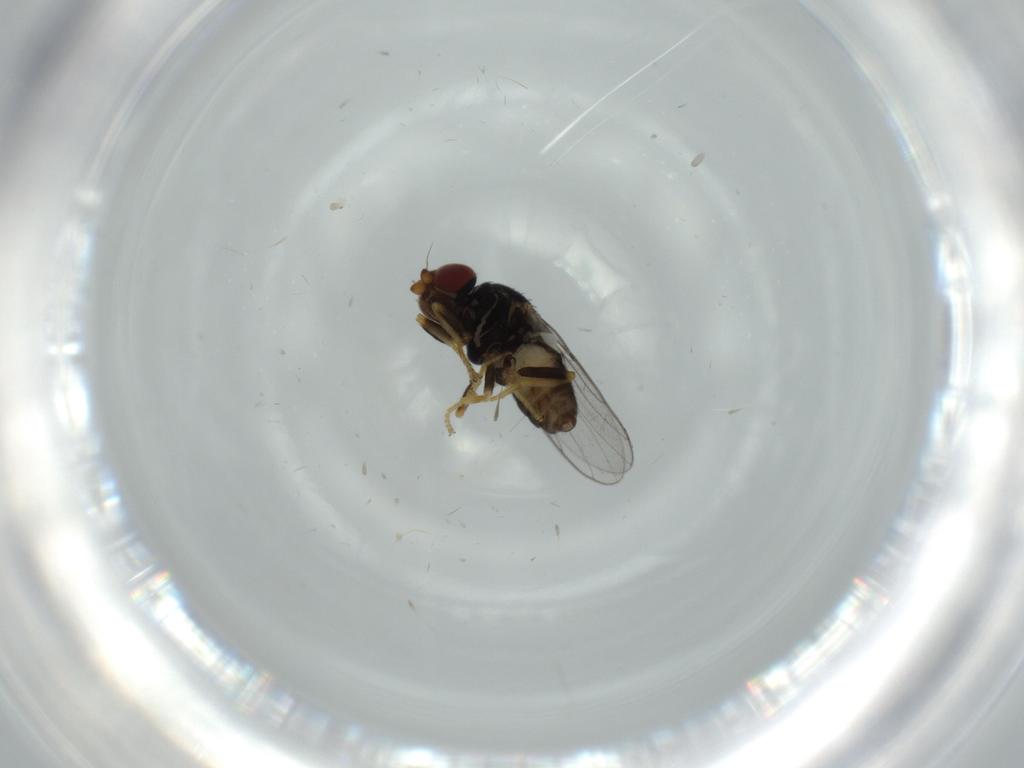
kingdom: Animalia
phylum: Arthropoda
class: Insecta
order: Diptera
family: Chloropidae
